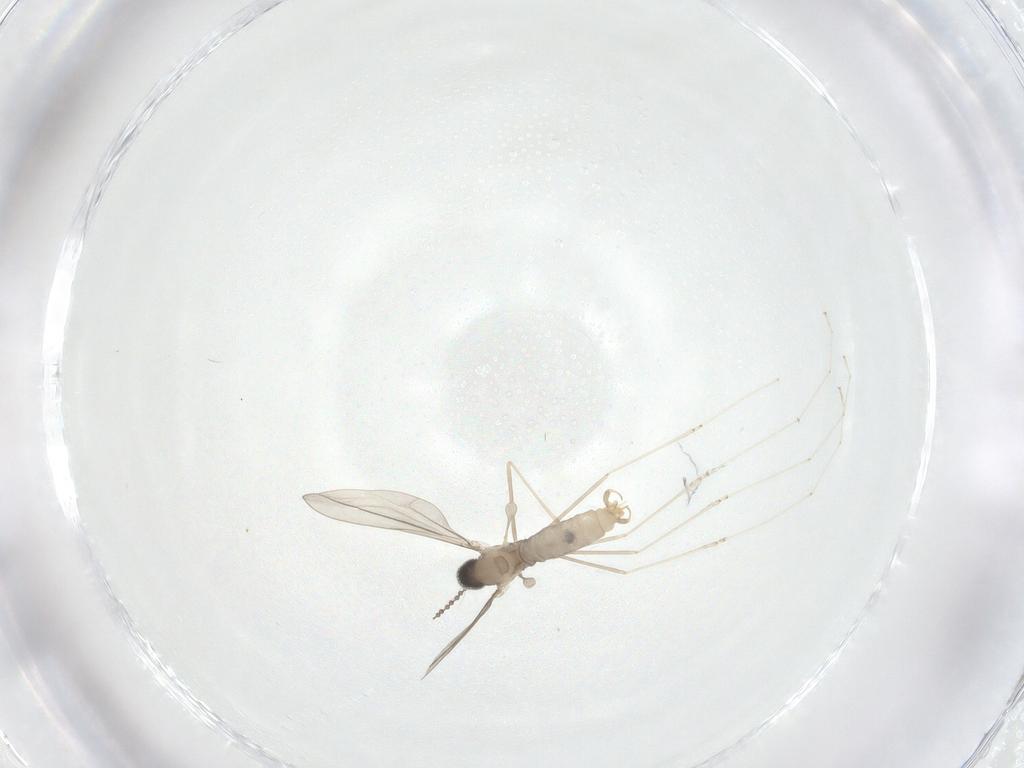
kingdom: Animalia
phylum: Arthropoda
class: Insecta
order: Diptera
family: Cecidomyiidae
